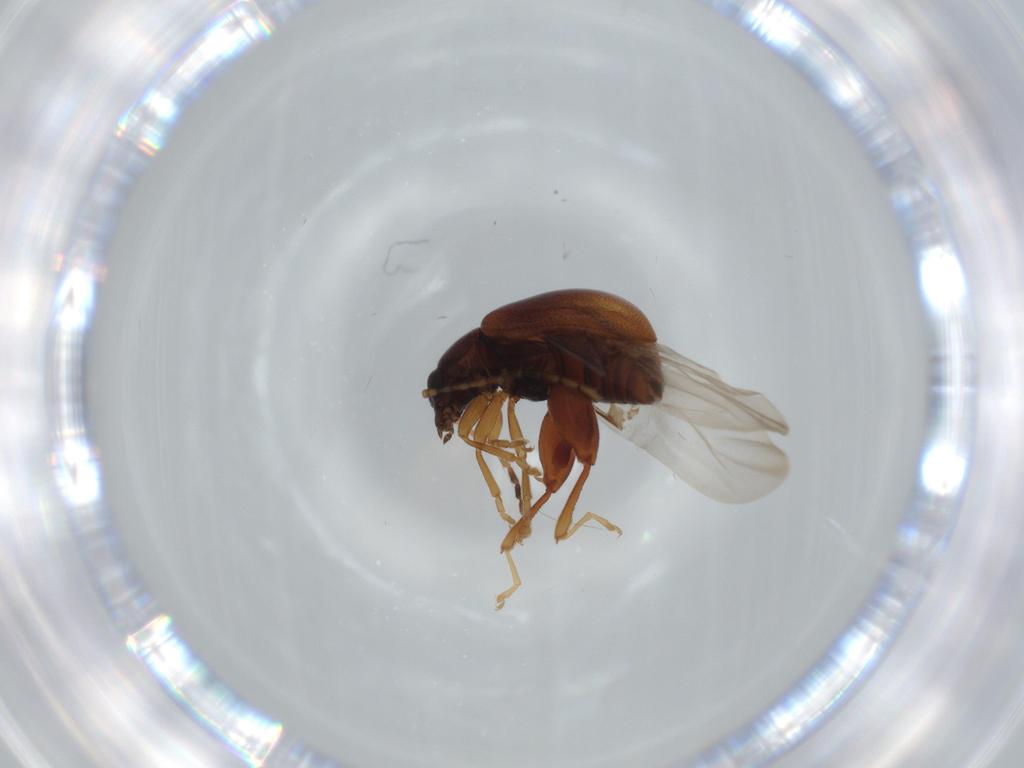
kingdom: Animalia
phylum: Arthropoda
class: Insecta
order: Coleoptera
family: Chrysomelidae
